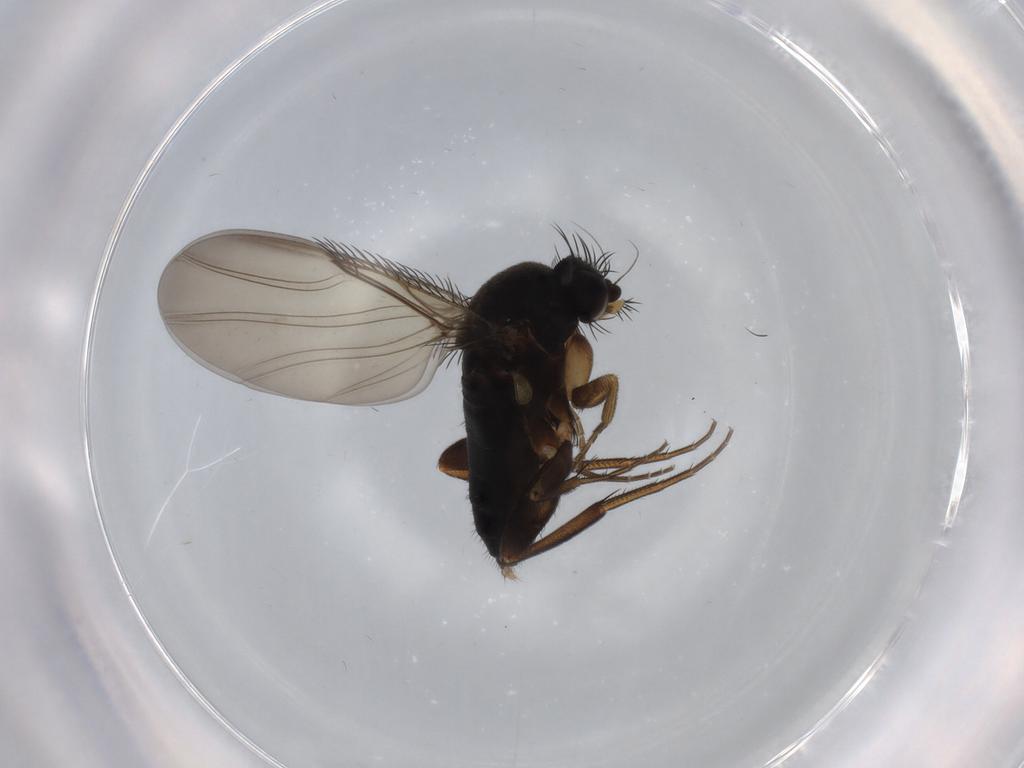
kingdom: Animalia
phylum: Arthropoda
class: Insecta
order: Diptera
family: Phoridae
